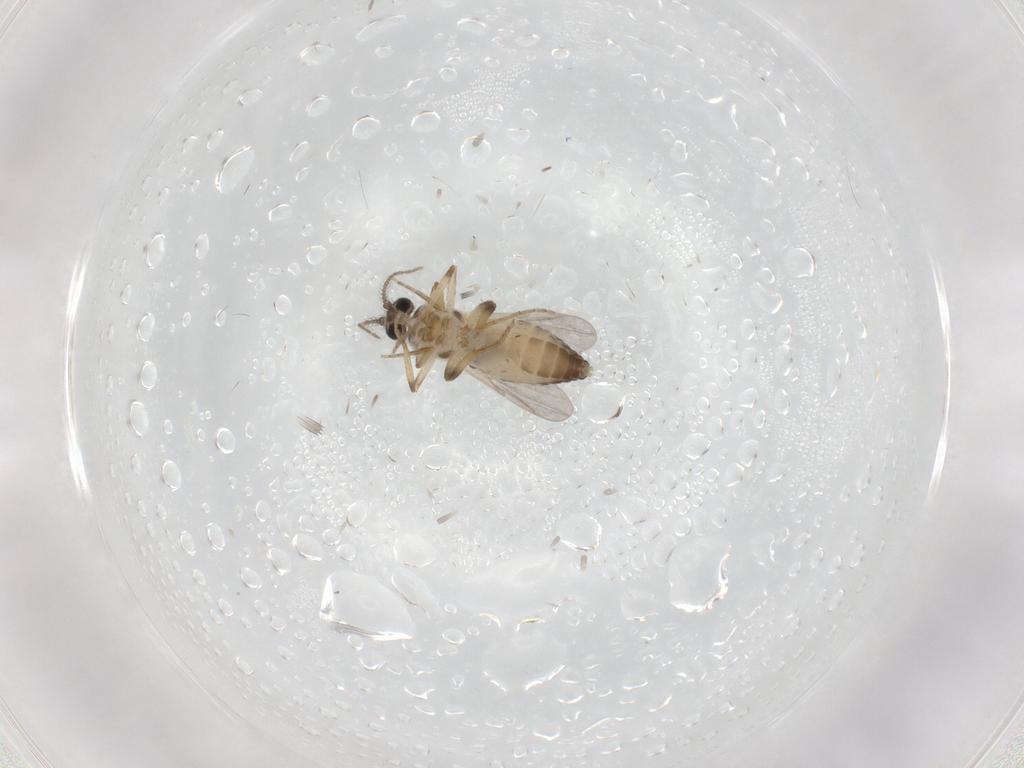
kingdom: Animalia
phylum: Arthropoda
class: Insecta
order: Diptera
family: Ceratopogonidae
